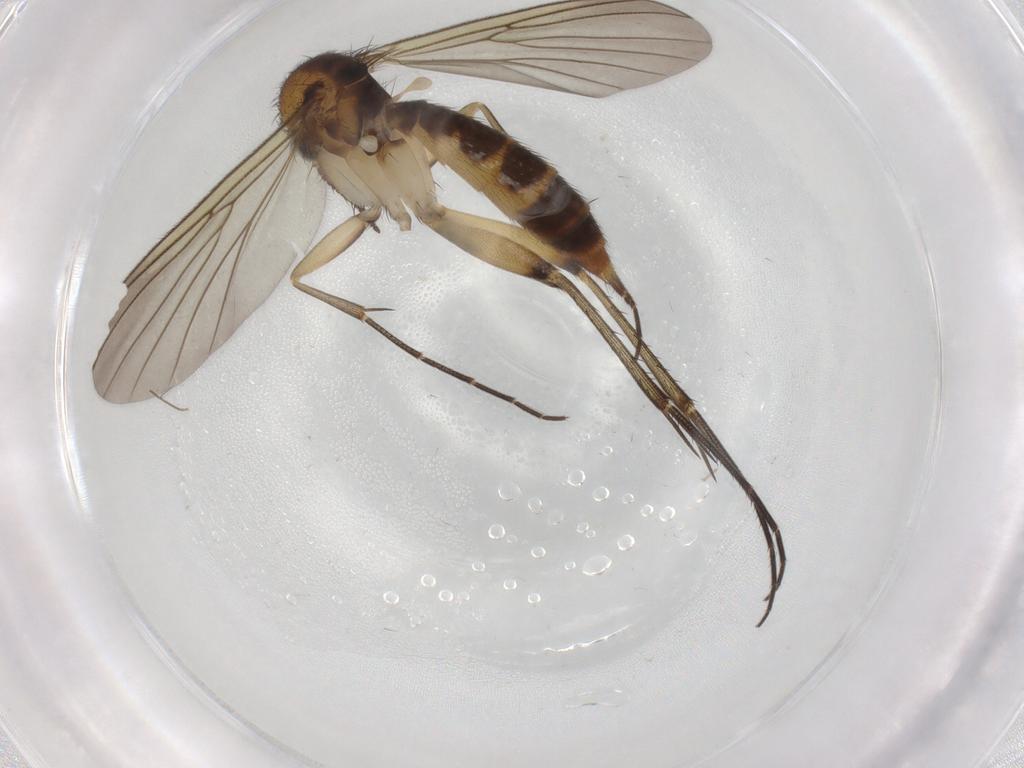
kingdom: Animalia
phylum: Arthropoda
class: Insecta
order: Diptera
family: Mycetophilidae
